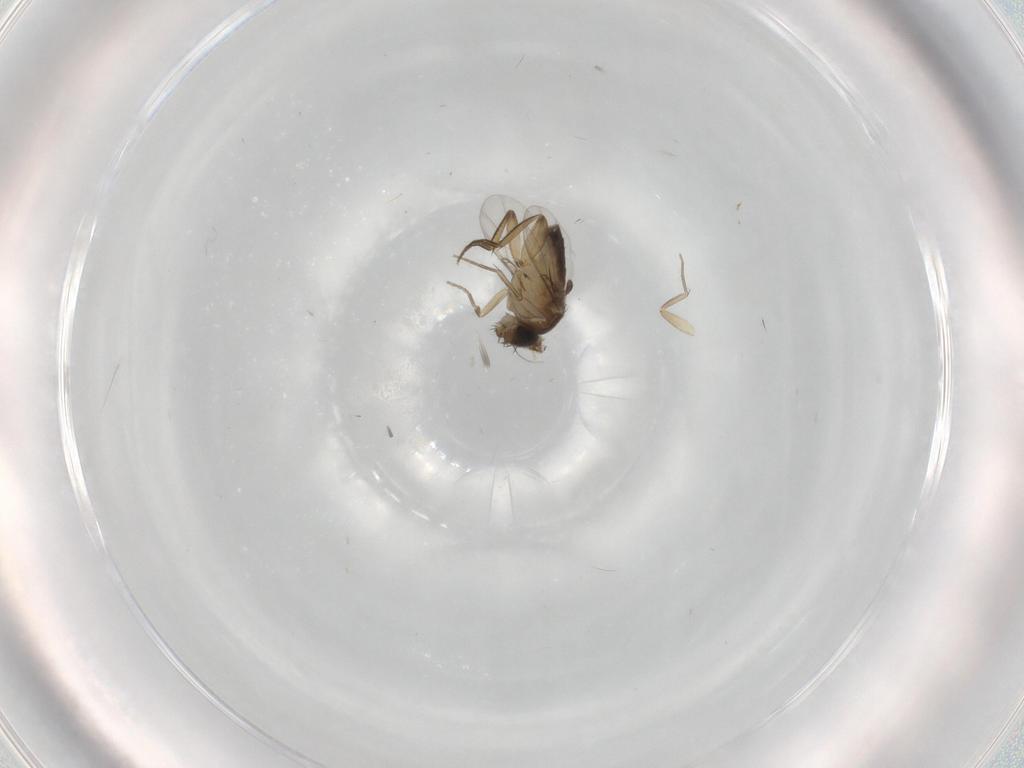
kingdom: Animalia
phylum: Arthropoda
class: Insecta
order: Diptera
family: Phoridae
